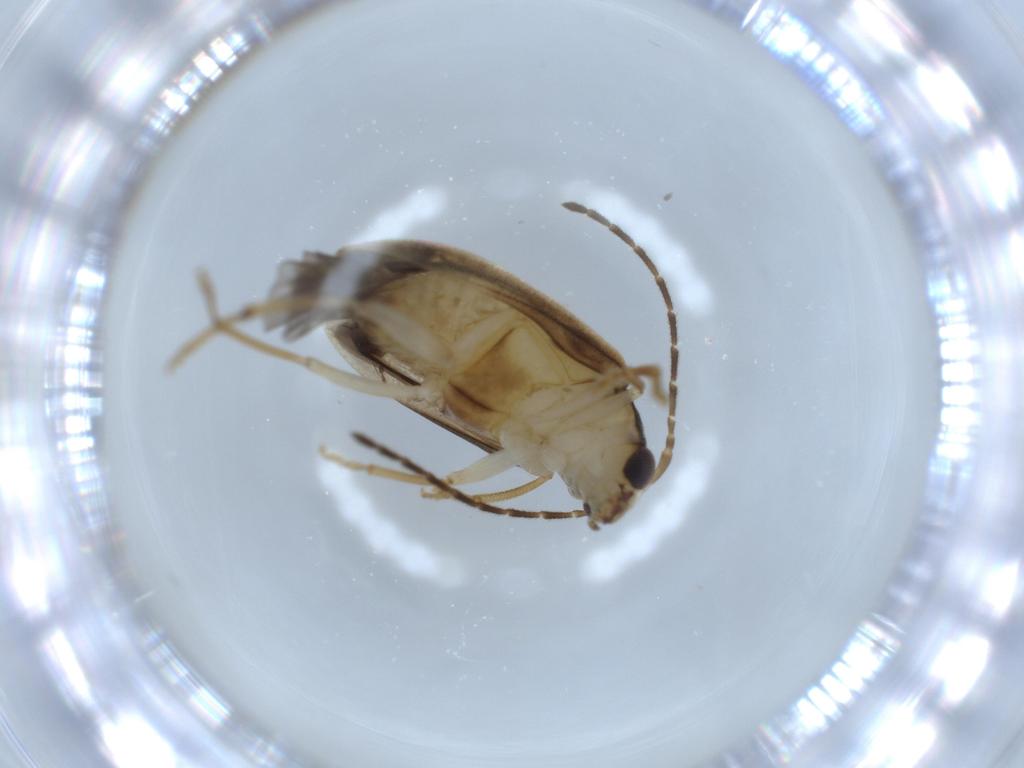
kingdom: Animalia
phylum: Arthropoda
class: Insecta
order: Coleoptera
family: Chrysomelidae
